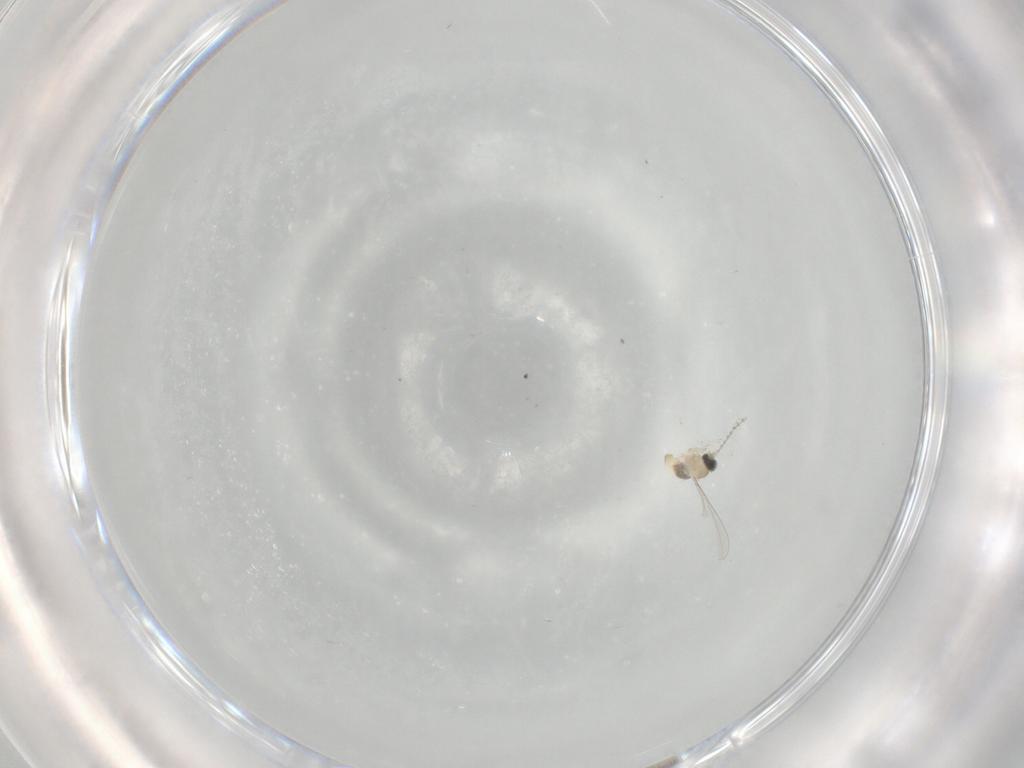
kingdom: Animalia
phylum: Arthropoda
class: Insecta
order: Diptera
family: Cecidomyiidae
